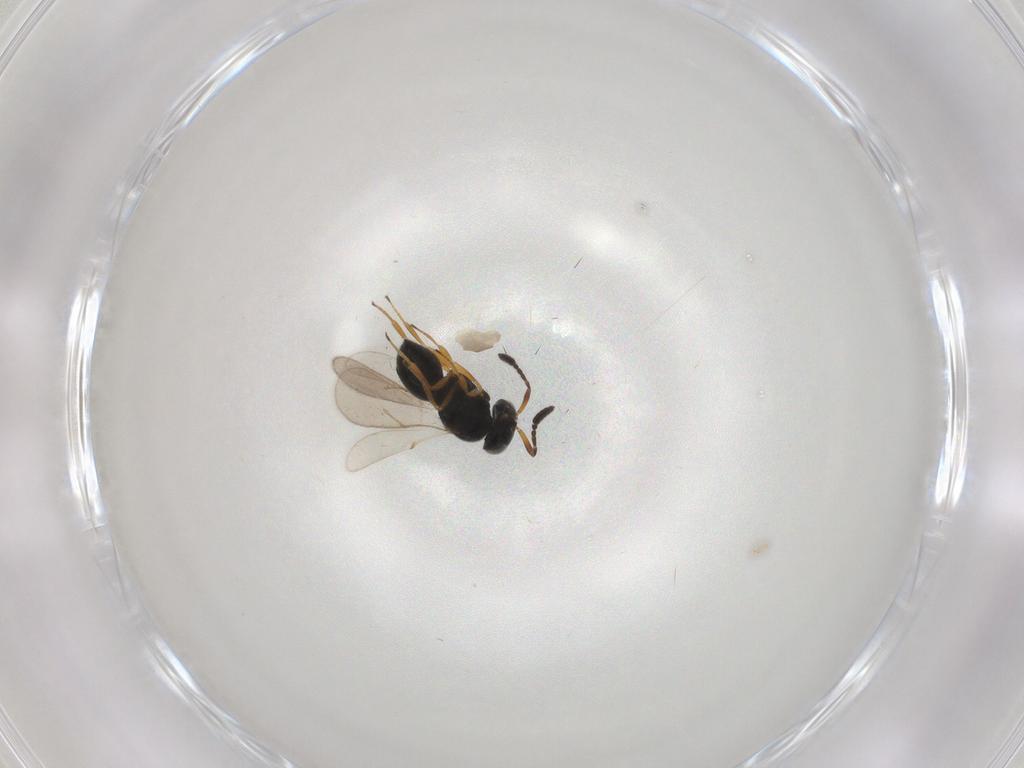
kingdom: Animalia
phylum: Arthropoda
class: Insecta
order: Hymenoptera
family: Scelionidae
